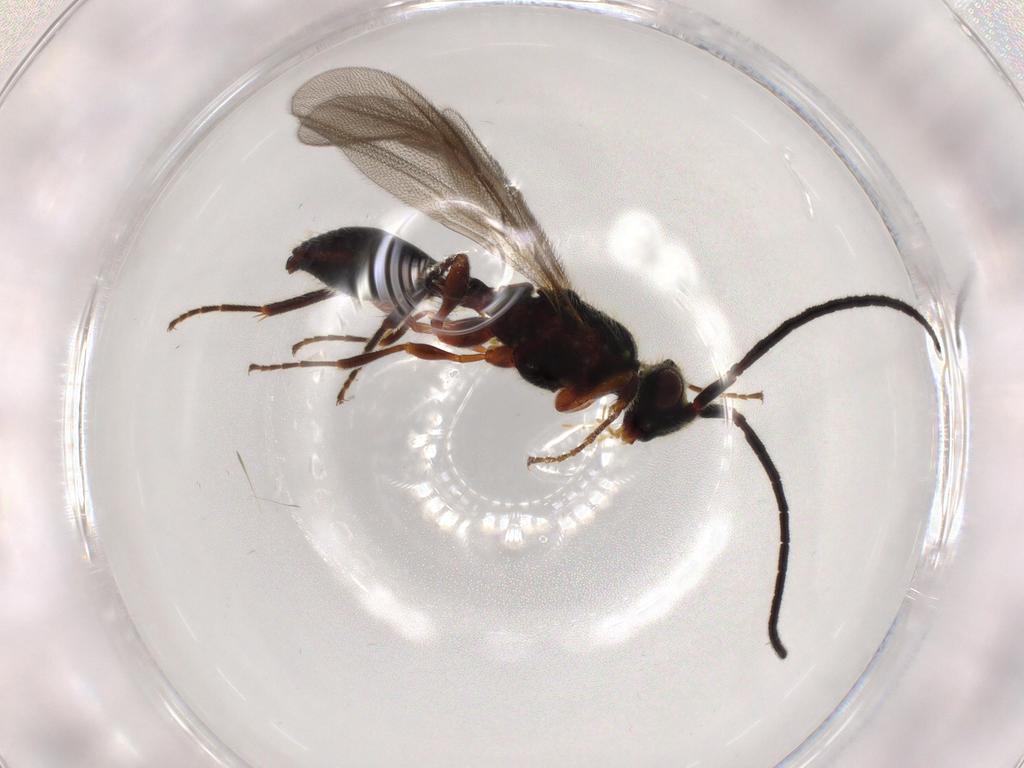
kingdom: Animalia
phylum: Arthropoda
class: Insecta
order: Hymenoptera
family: Diapriidae
